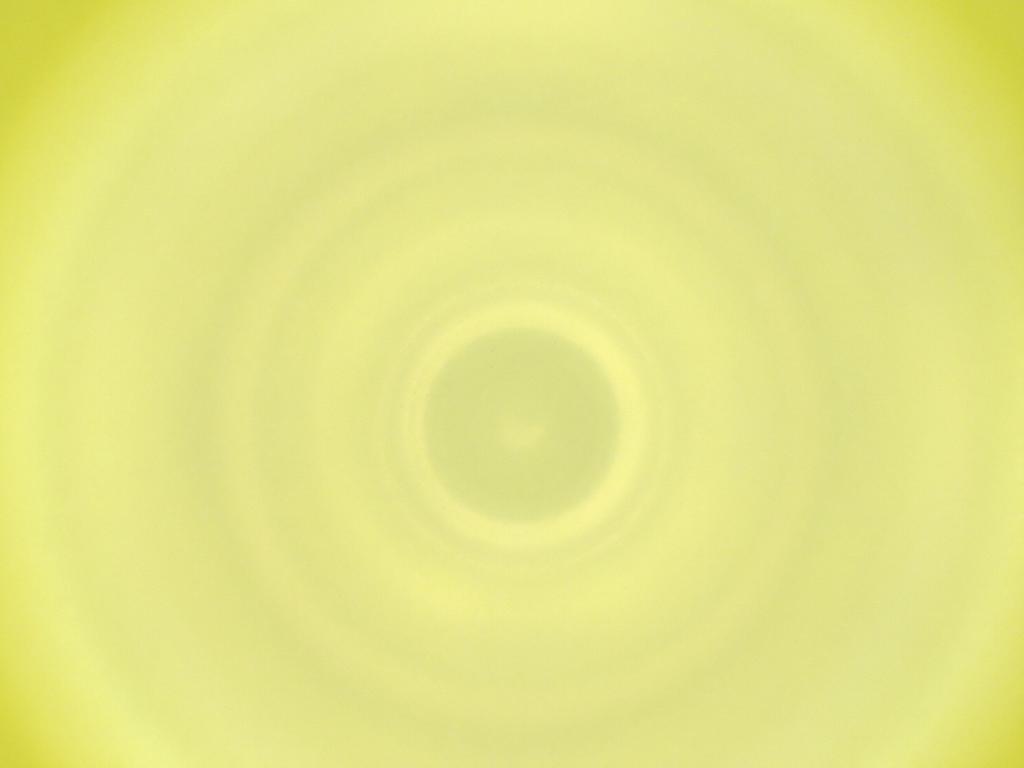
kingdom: Animalia
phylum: Arthropoda
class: Insecta
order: Diptera
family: Cecidomyiidae
